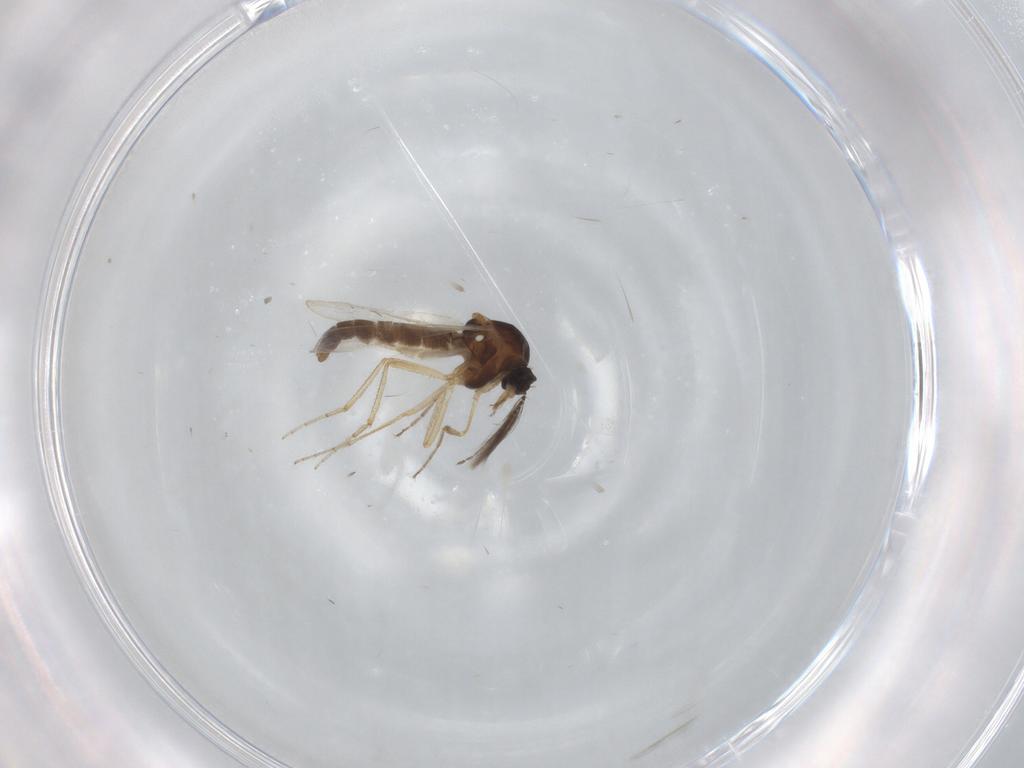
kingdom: Animalia
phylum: Arthropoda
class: Insecta
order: Diptera
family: Ceratopogonidae
